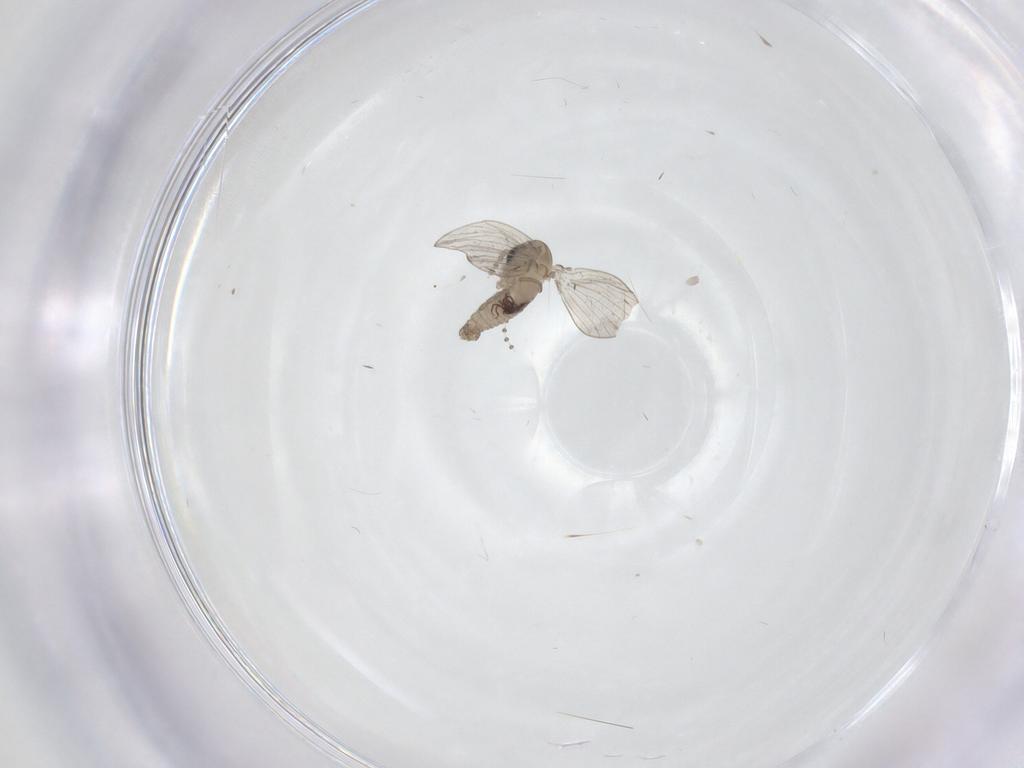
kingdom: Animalia
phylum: Arthropoda
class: Insecta
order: Diptera
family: Psychodidae
